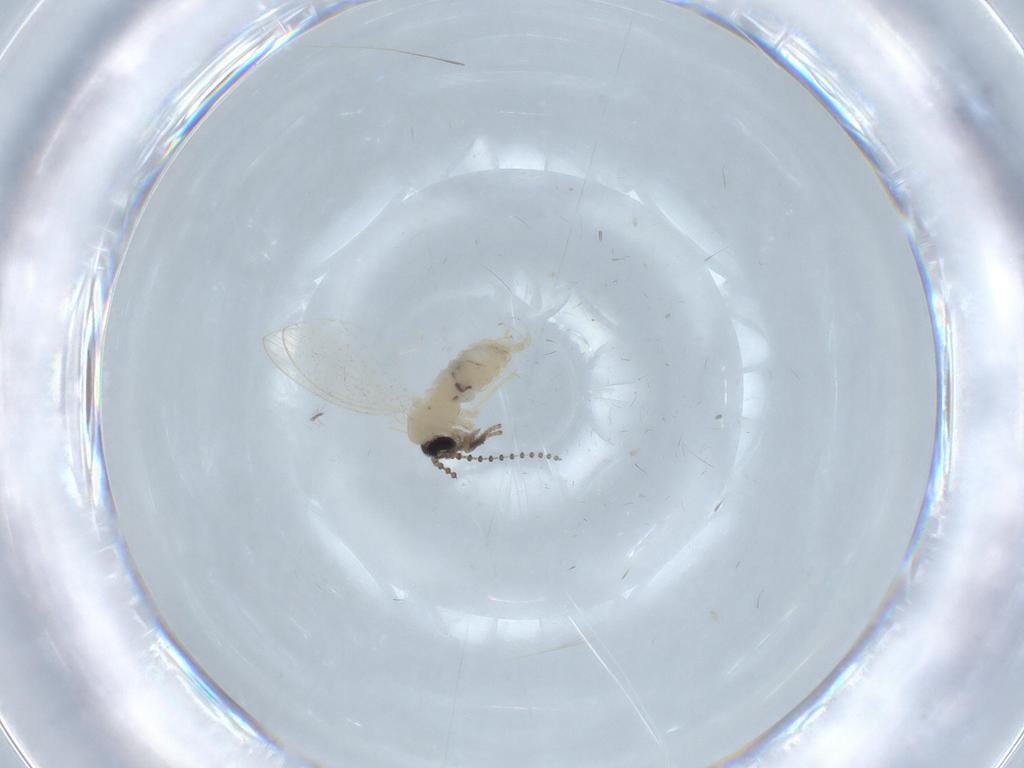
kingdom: Animalia
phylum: Arthropoda
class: Insecta
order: Diptera
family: Psychodidae
